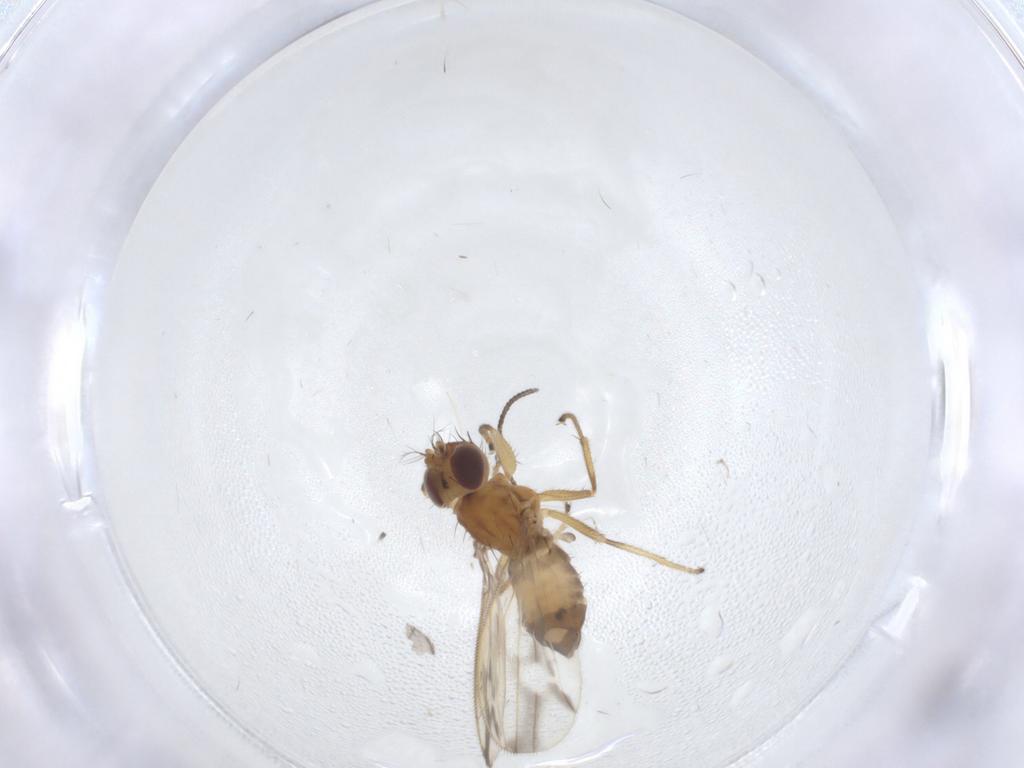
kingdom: Animalia
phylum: Arthropoda
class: Insecta
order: Diptera
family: Periscelididae
